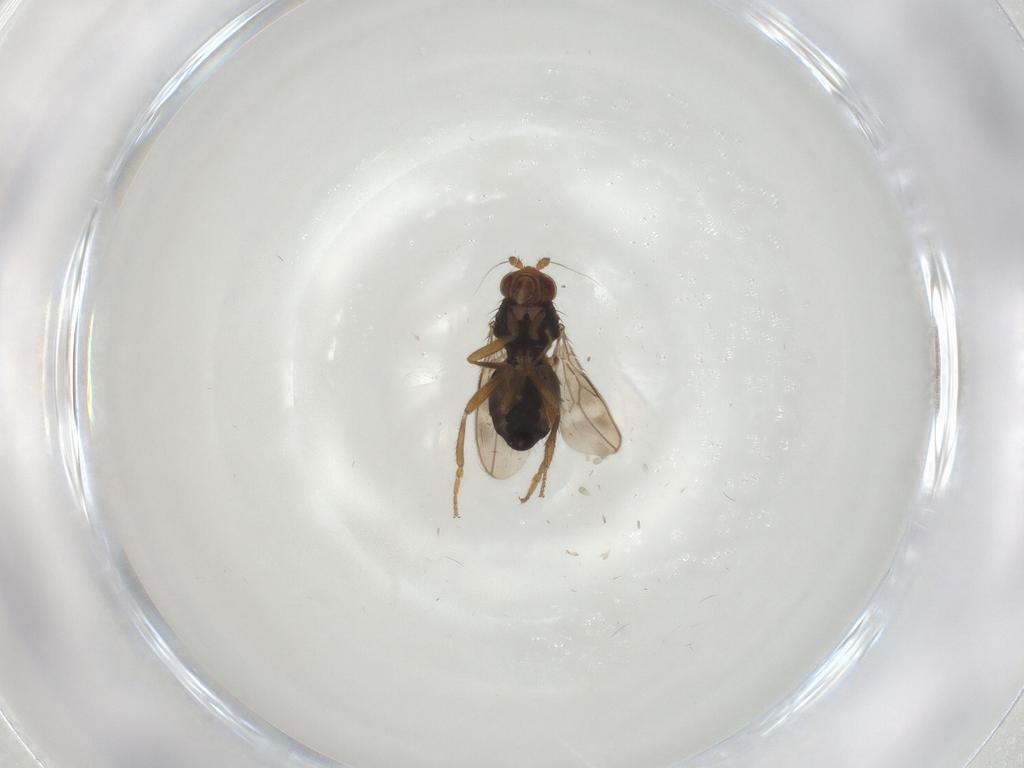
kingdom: Animalia
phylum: Arthropoda
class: Insecta
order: Diptera
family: Sphaeroceridae
